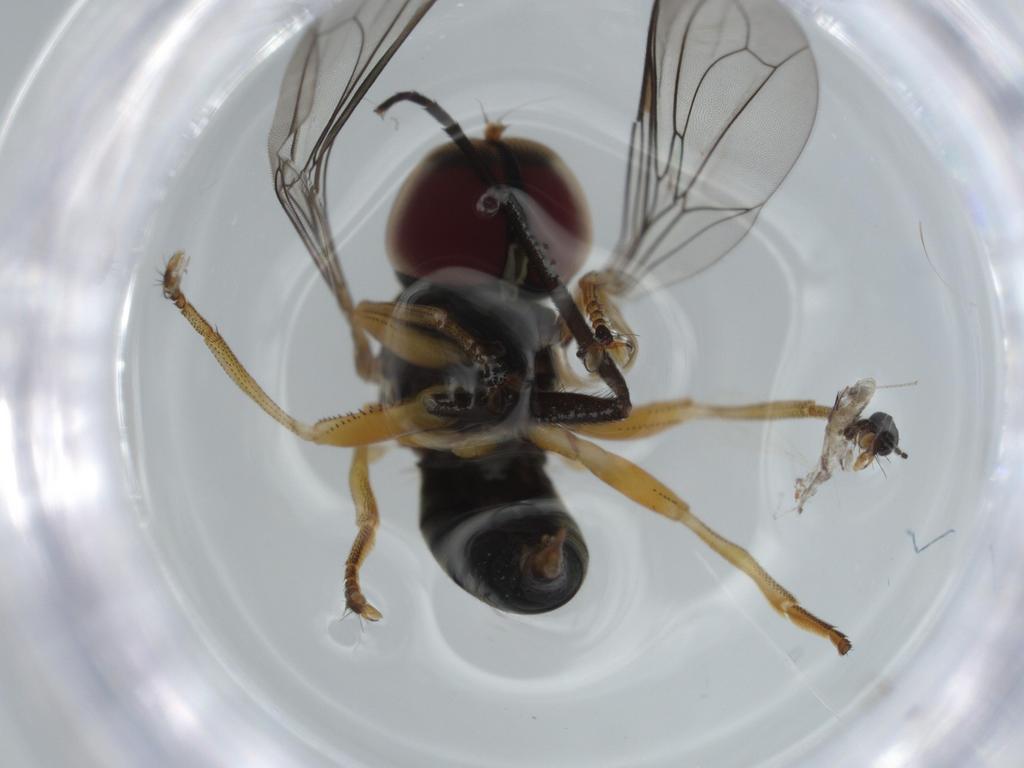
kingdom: Animalia
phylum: Arthropoda
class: Insecta
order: Diptera
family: Cecidomyiidae
